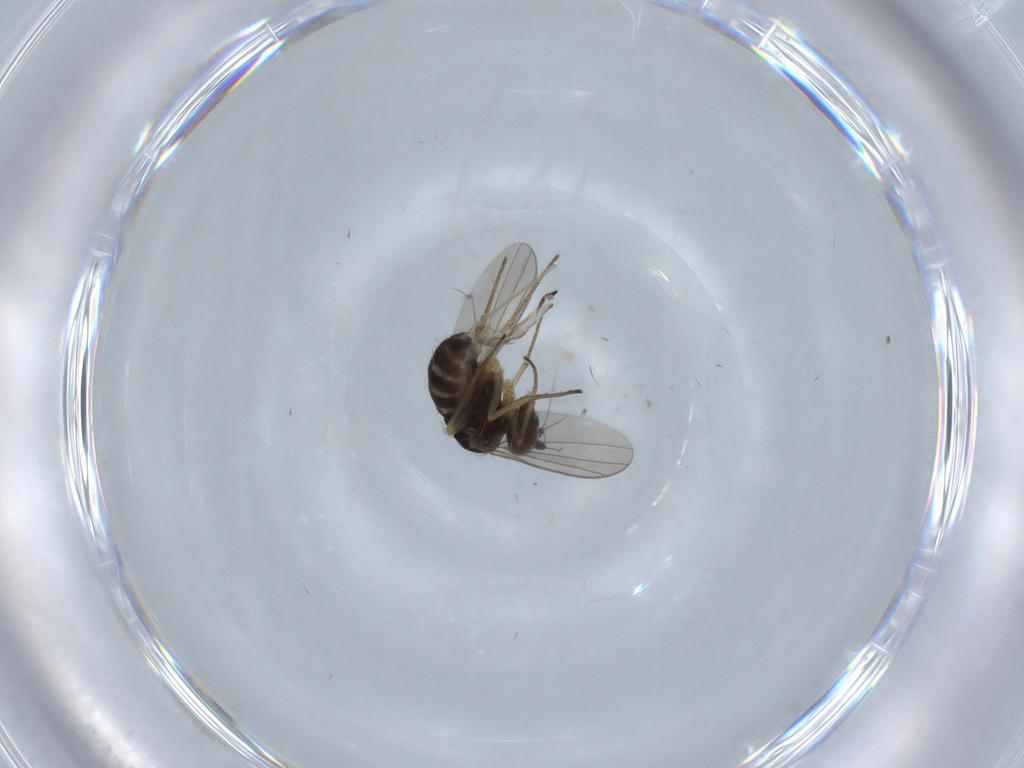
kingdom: Animalia
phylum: Arthropoda
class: Insecta
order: Diptera
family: Dolichopodidae
